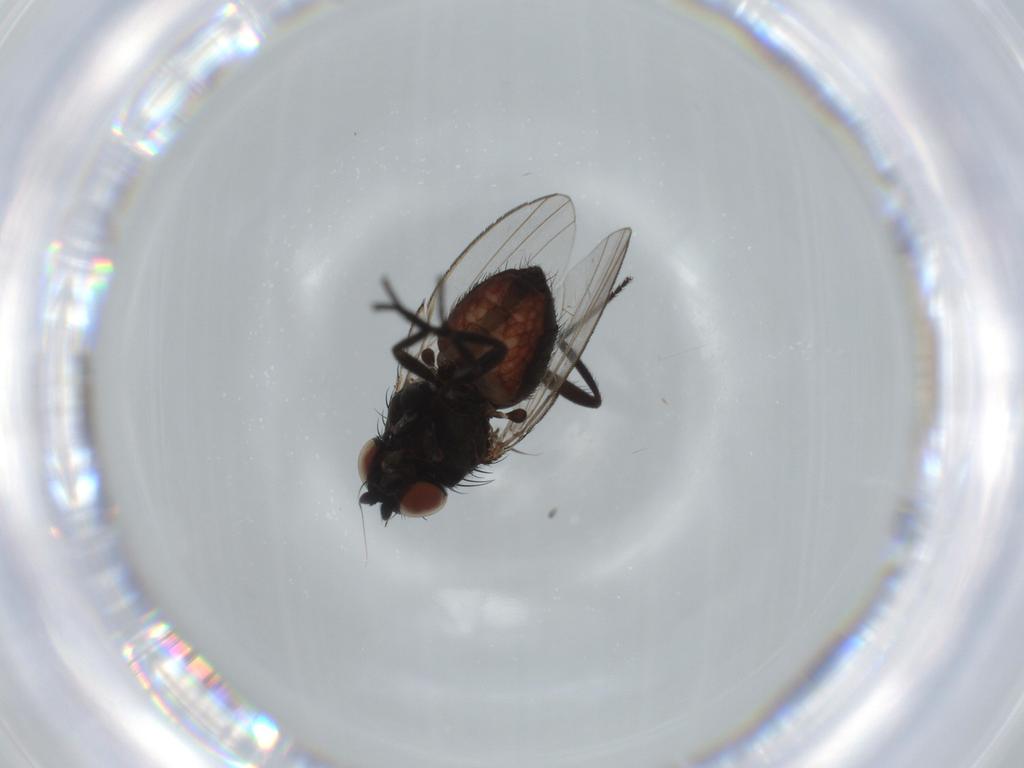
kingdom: Animalia
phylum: Arthropoda
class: Insecta
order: Diptera
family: Milichiidae
